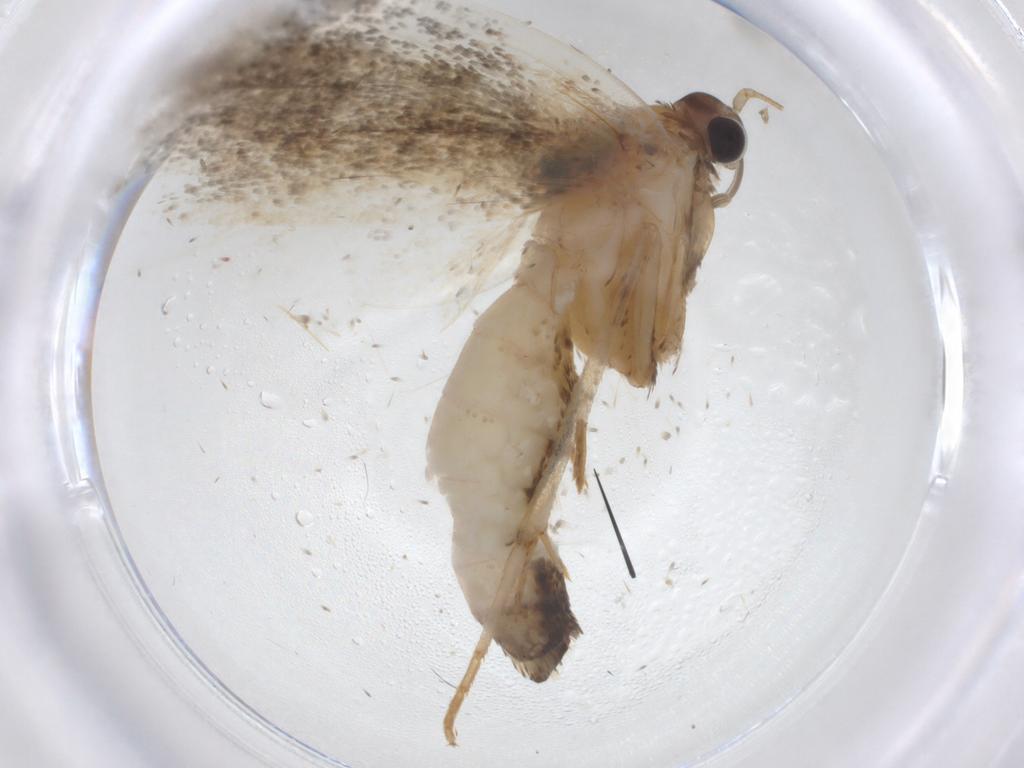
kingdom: Animalia
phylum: Arthropoda
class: Insecta
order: Lepidoptera
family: Tortricidae
